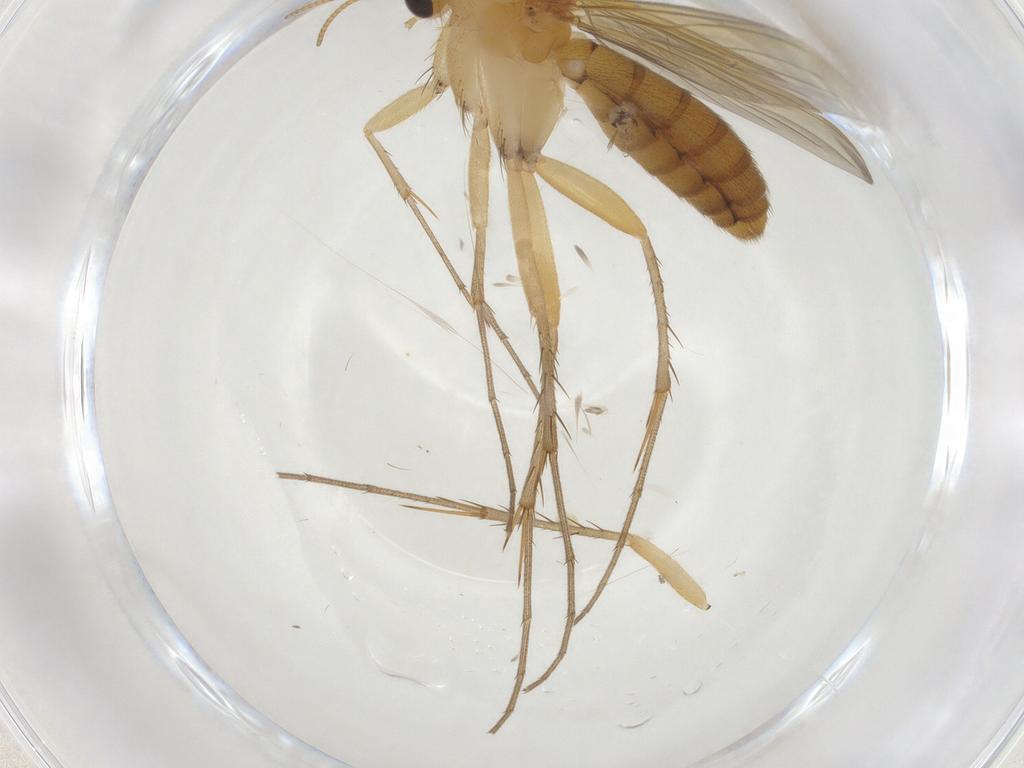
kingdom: Animalia
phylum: Arthropoda
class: Insecta
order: Diptera
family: Mycetophilidae
